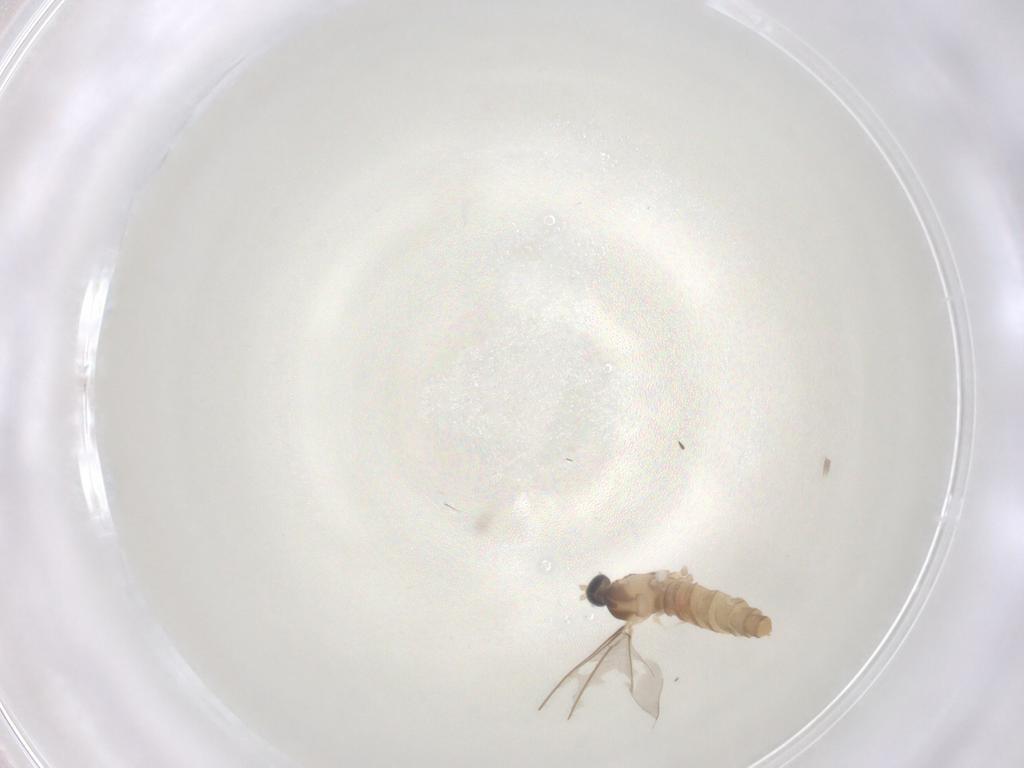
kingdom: Animalia
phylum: Arthropoda
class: Insecta
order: Diptera
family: Cecidomyiidae
